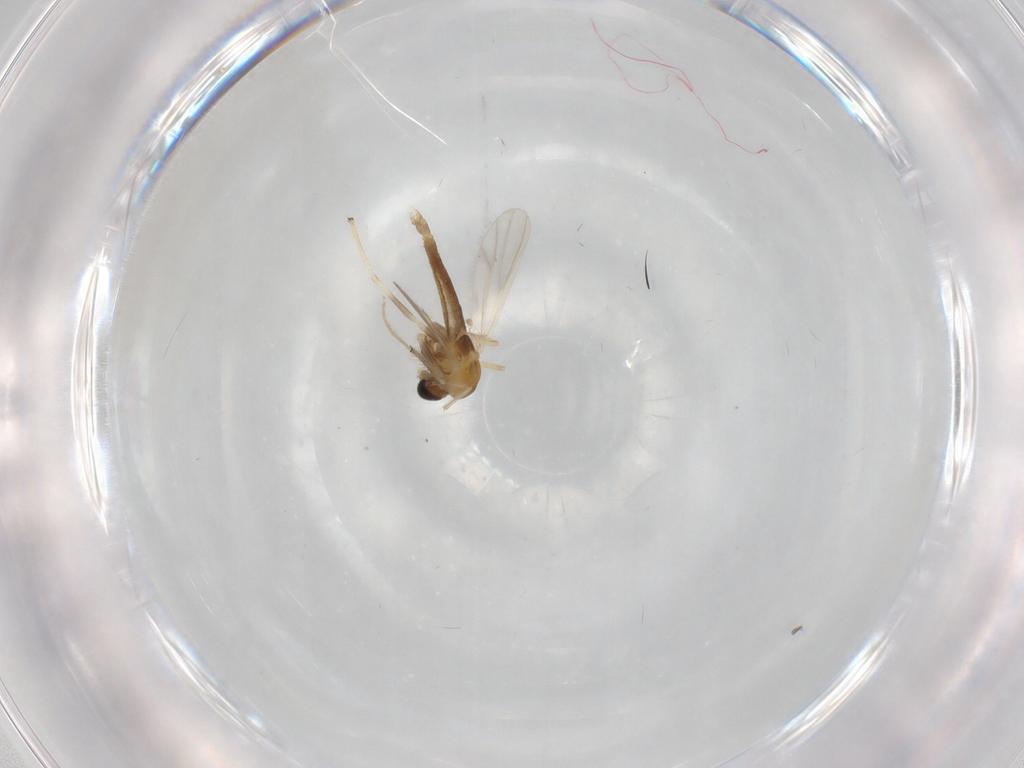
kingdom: Animalia
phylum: Arthropoda
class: Insecta
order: Diptera
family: Chironomidae
